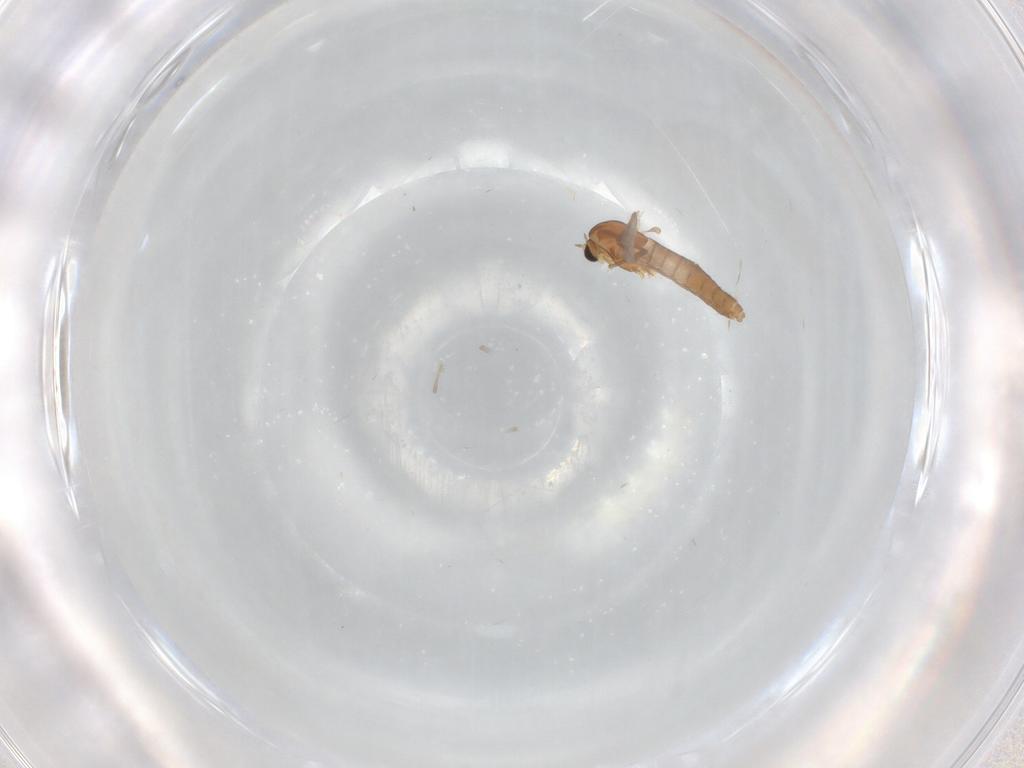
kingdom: Animalia
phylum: Arthropoda
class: Insecta
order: Diptera
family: Chironomidae
